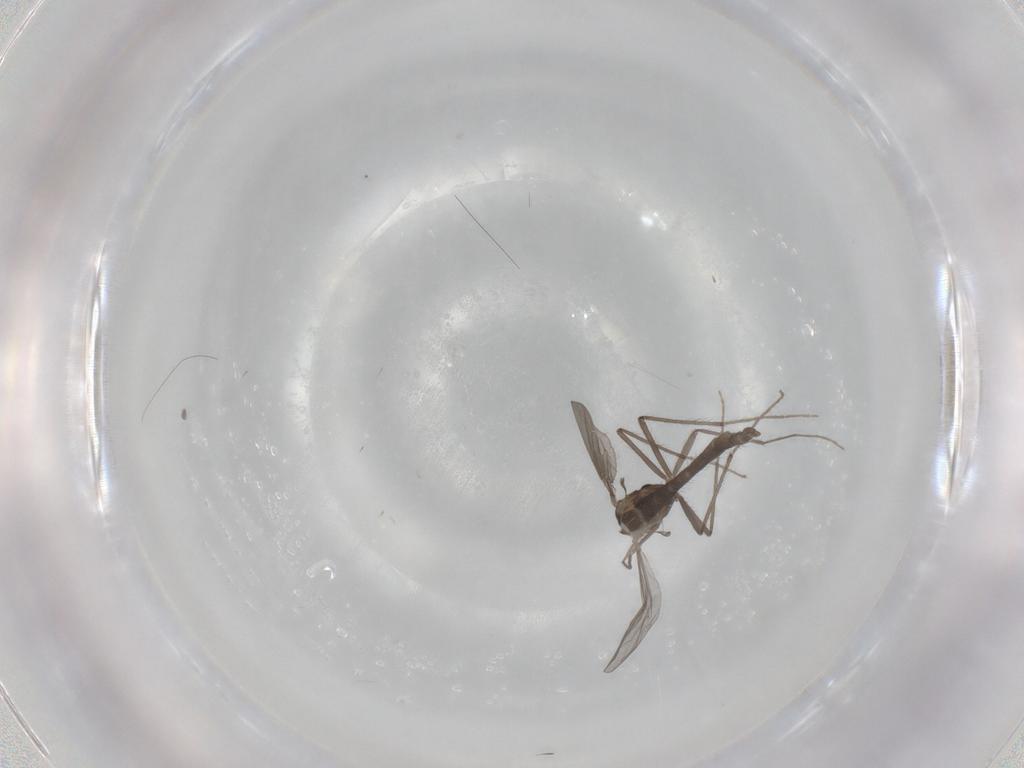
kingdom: Animalia
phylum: Arthropoda
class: Insecta
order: Diptera
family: Chironomidae
